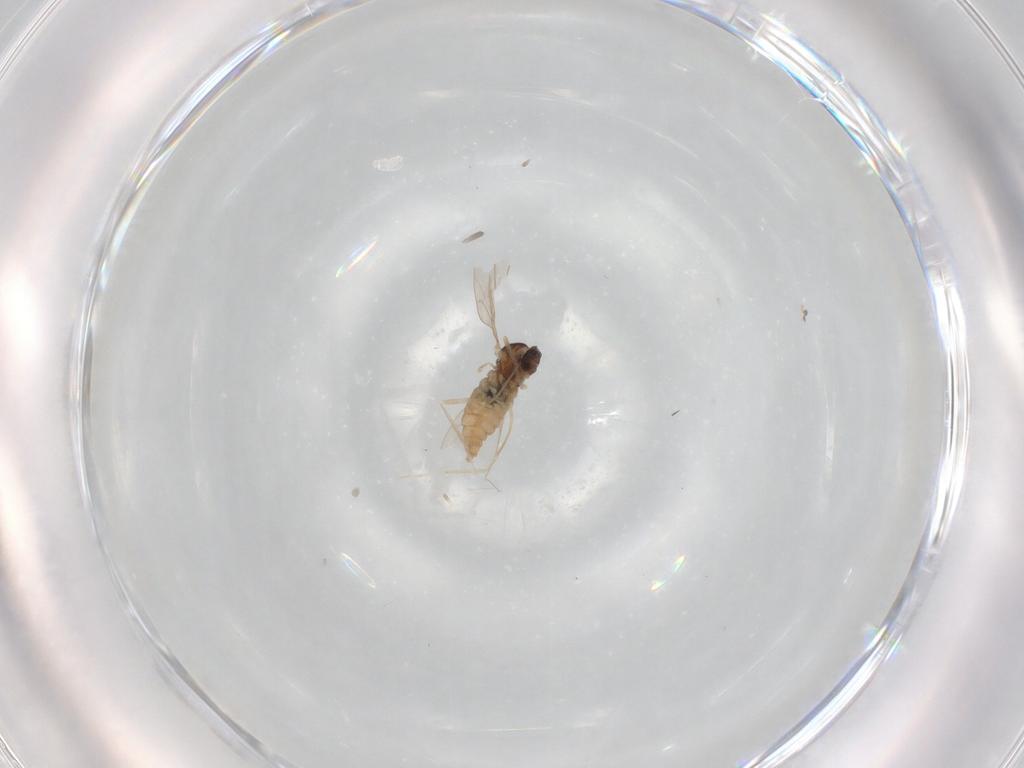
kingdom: Animalia
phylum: Arthropoda
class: Insecta
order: Diptera
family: Cecidomyiidae
